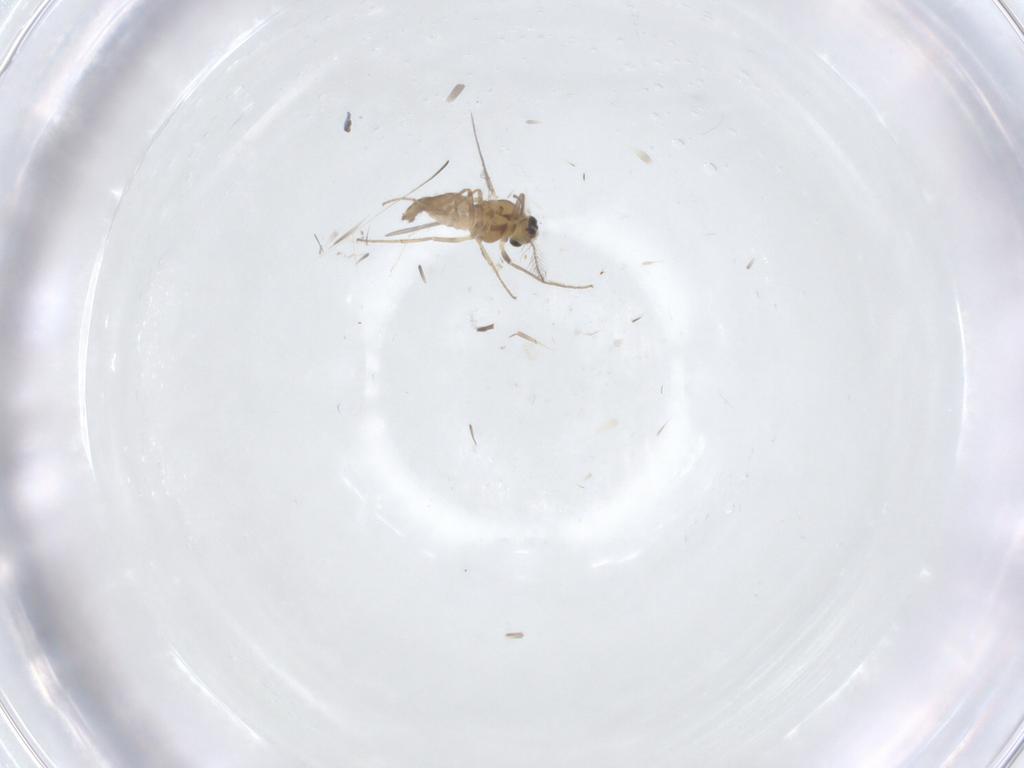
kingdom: Animalia
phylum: Arthropoda
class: Insecta
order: Diptera
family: Chironomidae
